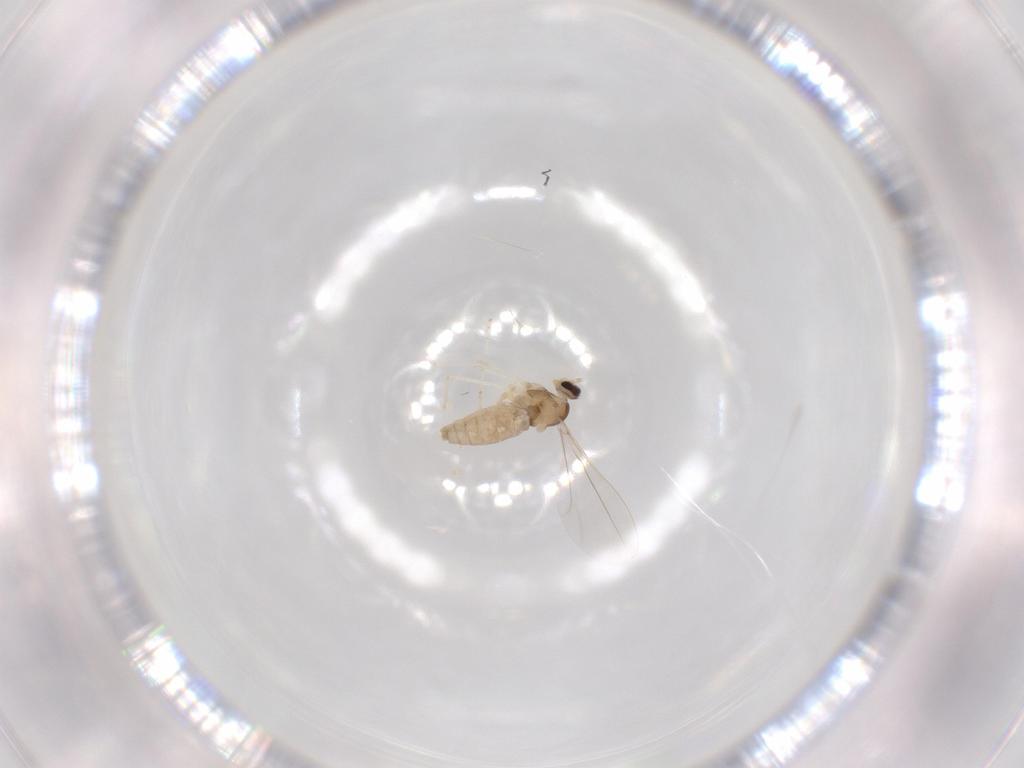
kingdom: Animalia
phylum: Arthropoda
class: Insecta
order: Diptera
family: Cecidomyiidae
